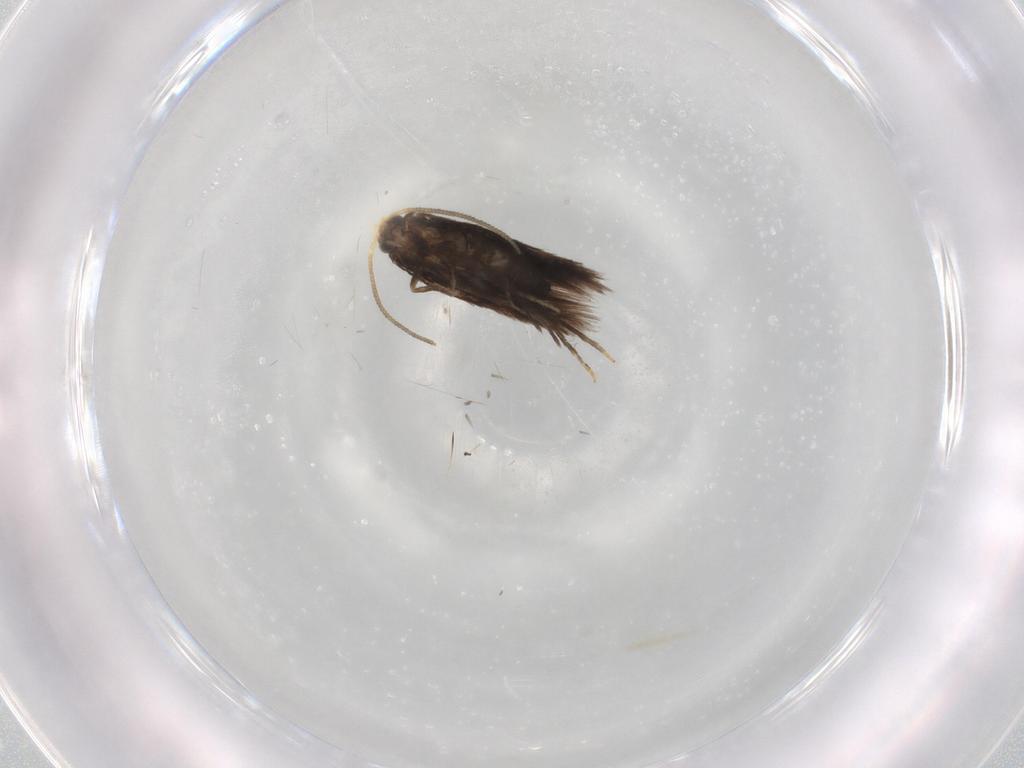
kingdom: Animalia
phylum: Arthropoda
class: Insecta
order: Lepidoptera
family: Nepticulidae
